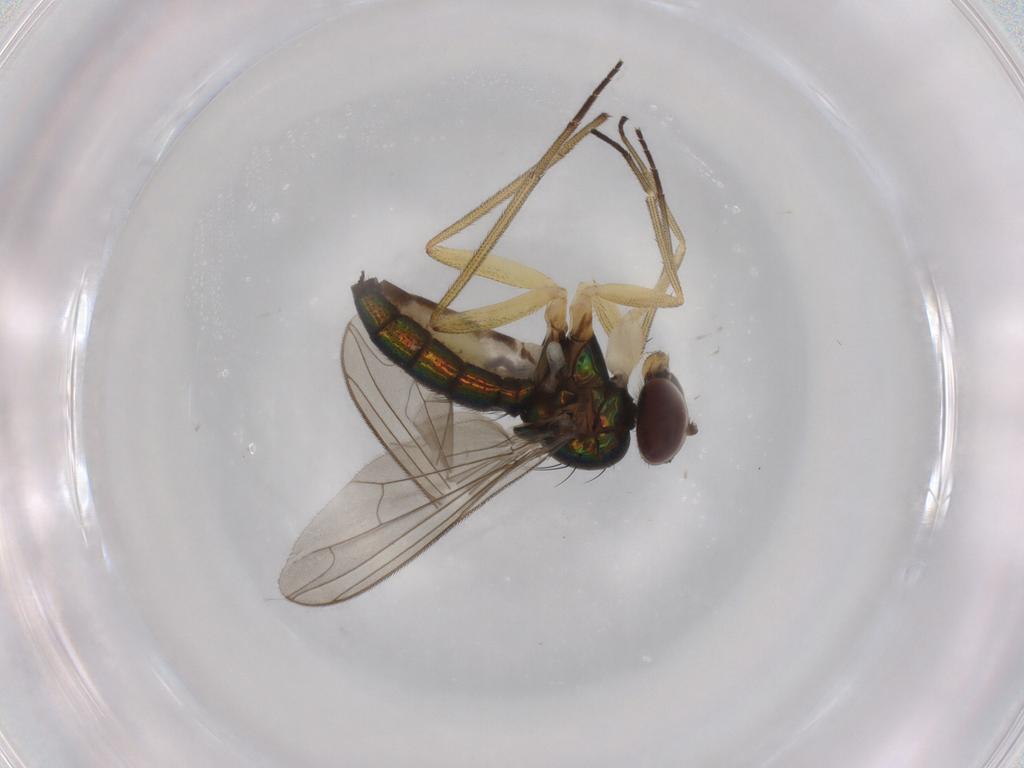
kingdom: Animalia
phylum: Arthropoda
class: Insecta
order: Diptera
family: Dolichopodidae
